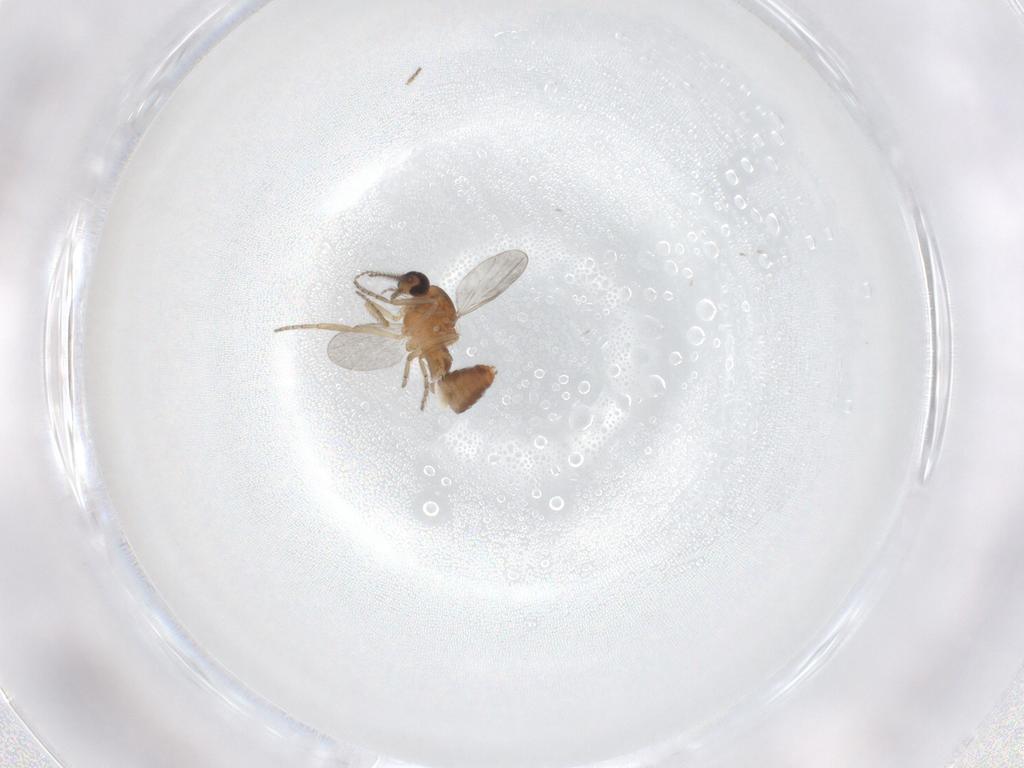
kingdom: Animalia
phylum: Arthropoda
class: Insecta
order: Diptera
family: Ceratopogonidae
